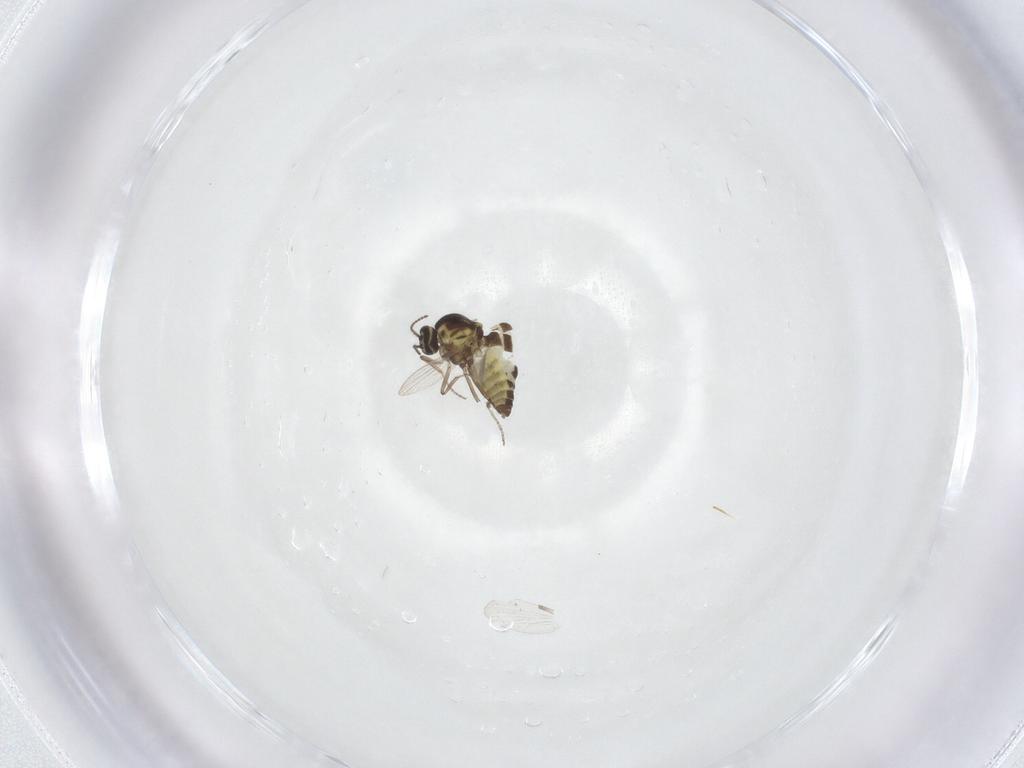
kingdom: Animalia
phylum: Arthropoda
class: Insecta
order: Diptera
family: Ceratopogonidae
